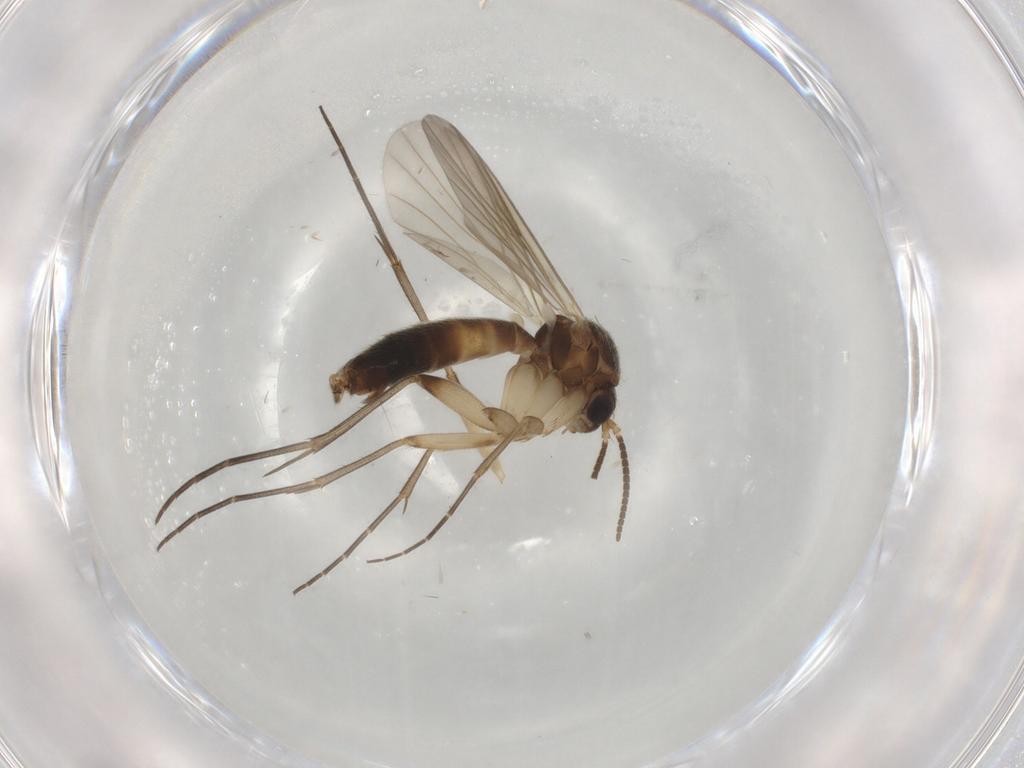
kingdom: Animalia
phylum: Arthropoda
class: Insecta
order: Diptera
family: Mycetophilidae
